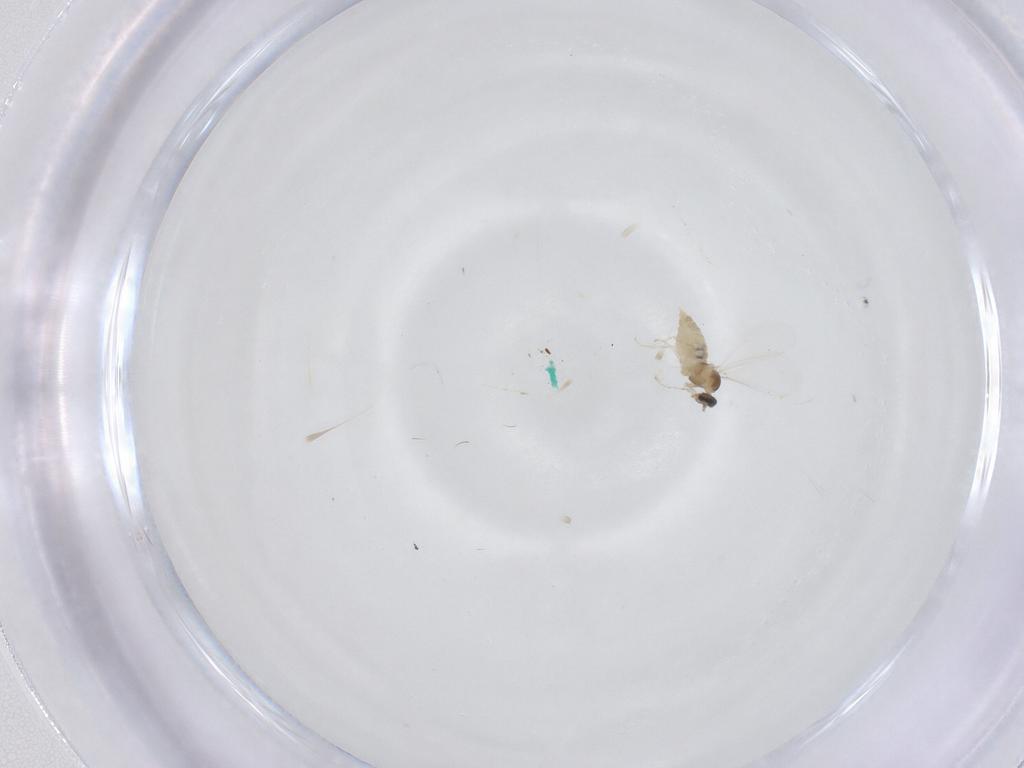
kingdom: Animalia
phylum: Arthropoda
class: Insecta
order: Diptera
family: Cecidomyiidae
